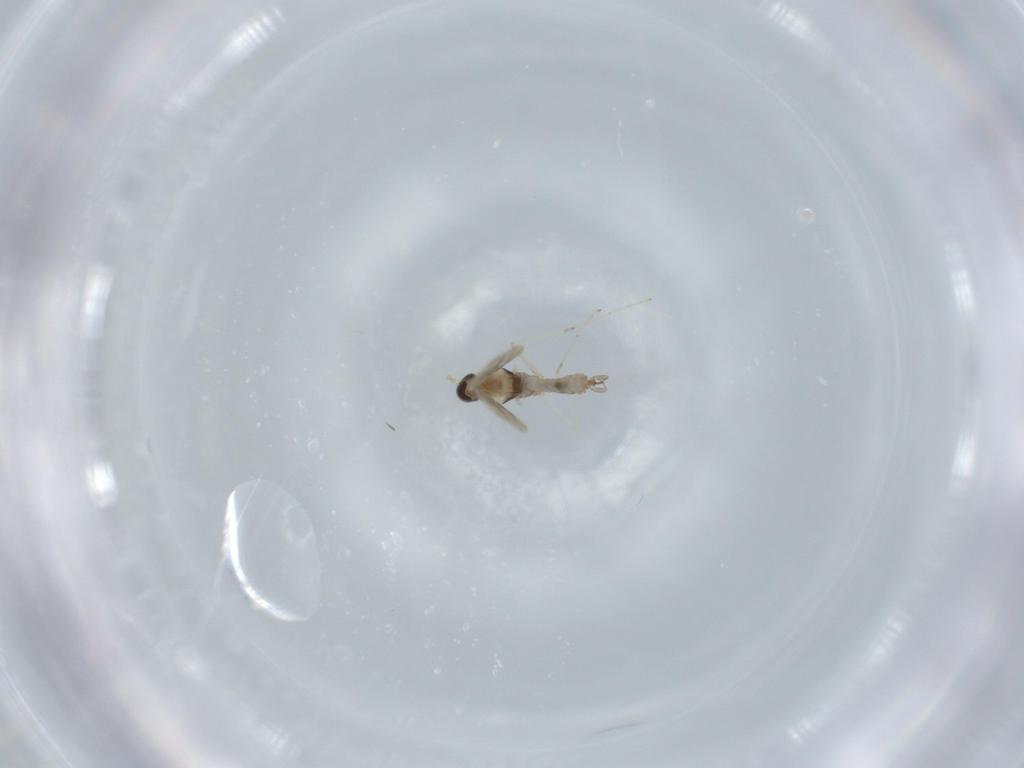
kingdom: Animalia
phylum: Arthropoda
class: Insecta
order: Diptera
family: Cecidomyiidae
